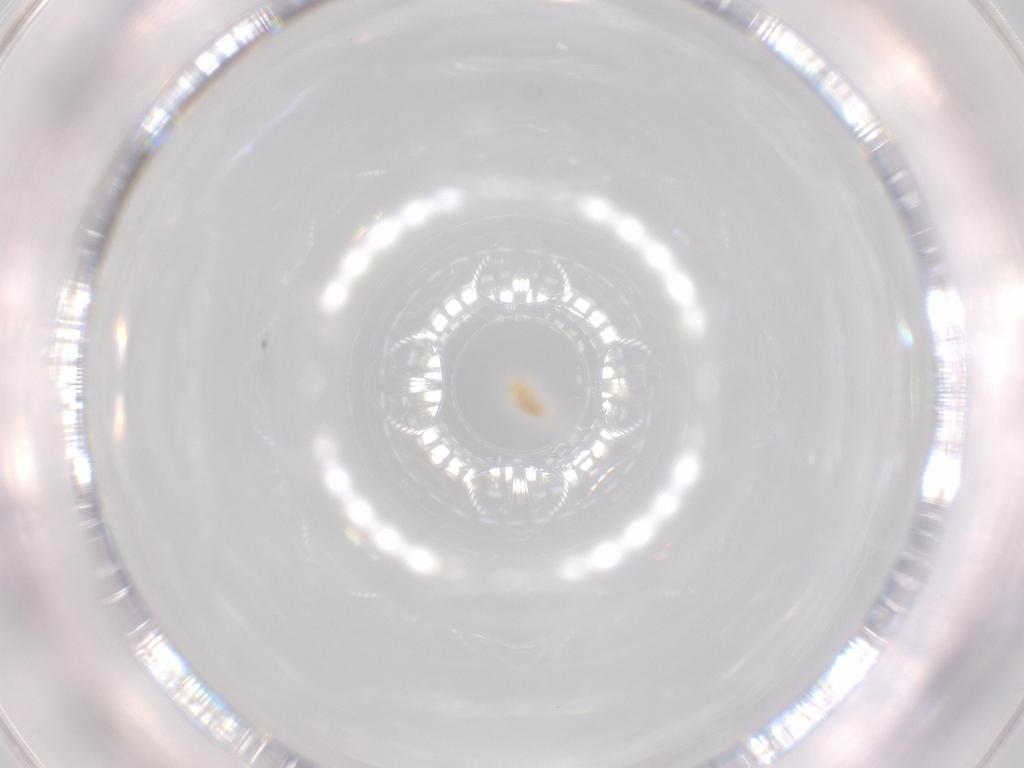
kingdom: Animalia
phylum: Arthropoda
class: Arachnida
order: Trombidiformes
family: Eupodidae
